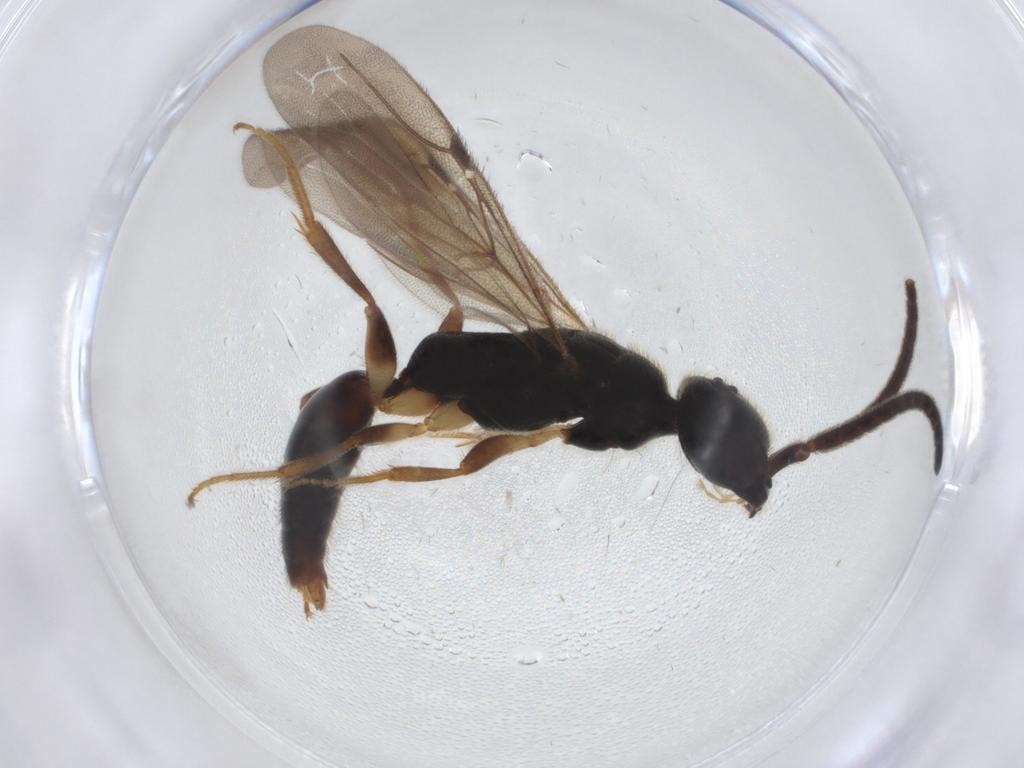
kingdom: Animalia
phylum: Arthropoda
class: Insecta
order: Hymenoptera
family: Bethylidae
